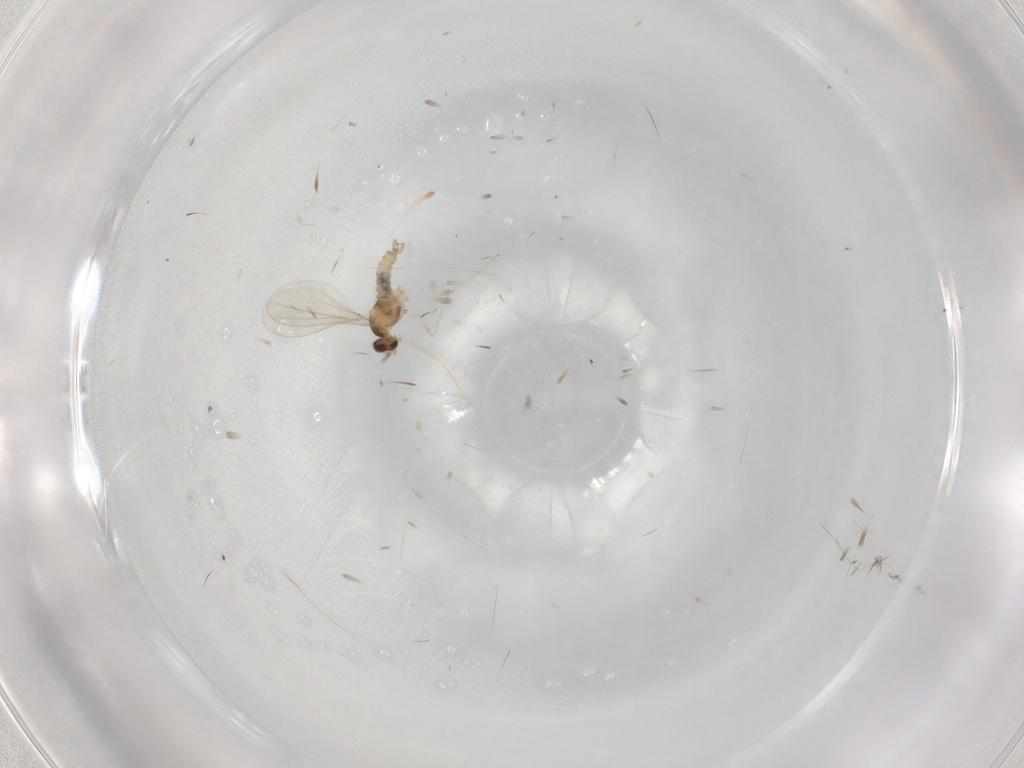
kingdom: Animalia
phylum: Arthropoda
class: Insecta
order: Diptera
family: Cecidomyiidae
